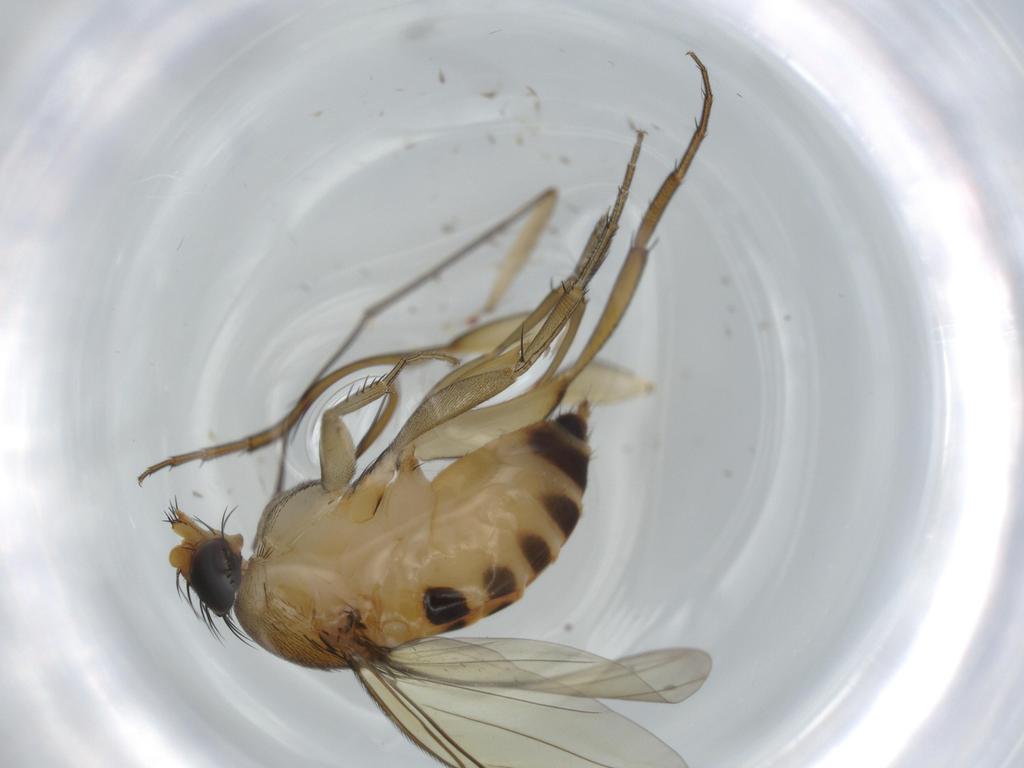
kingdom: Animalia
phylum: Arthropoda
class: Insecta
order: Diptera
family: Sciaridae
